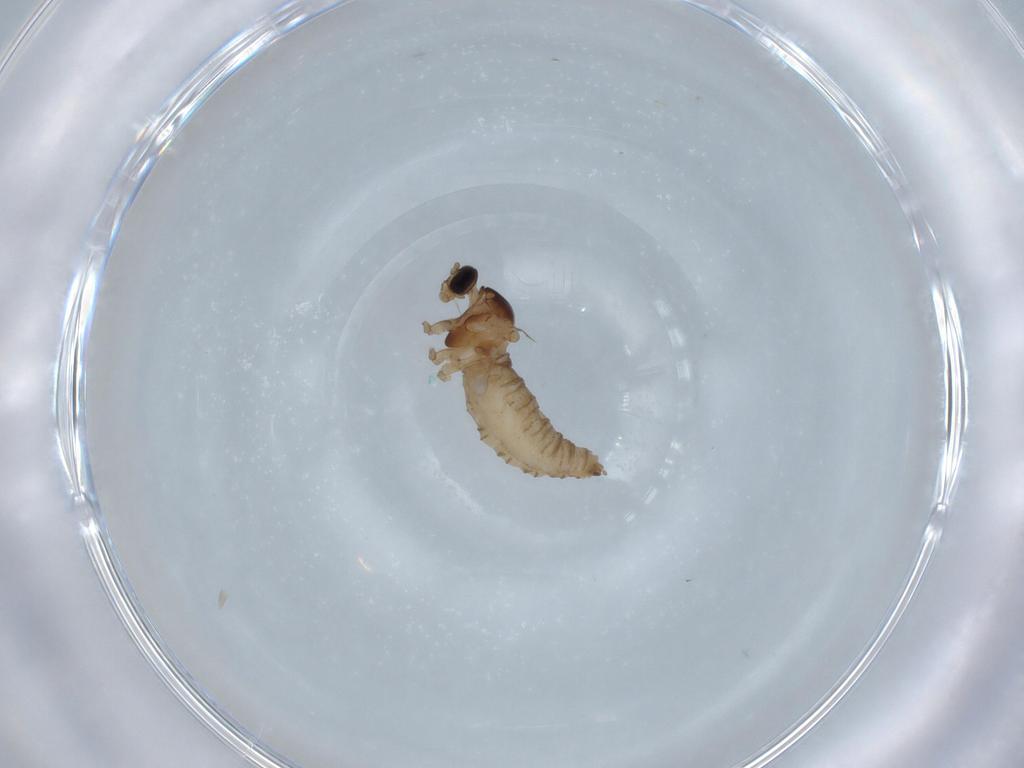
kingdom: Animalia
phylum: Arthropoda
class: Insecta
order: Diptera
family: Cecidomyiidae
